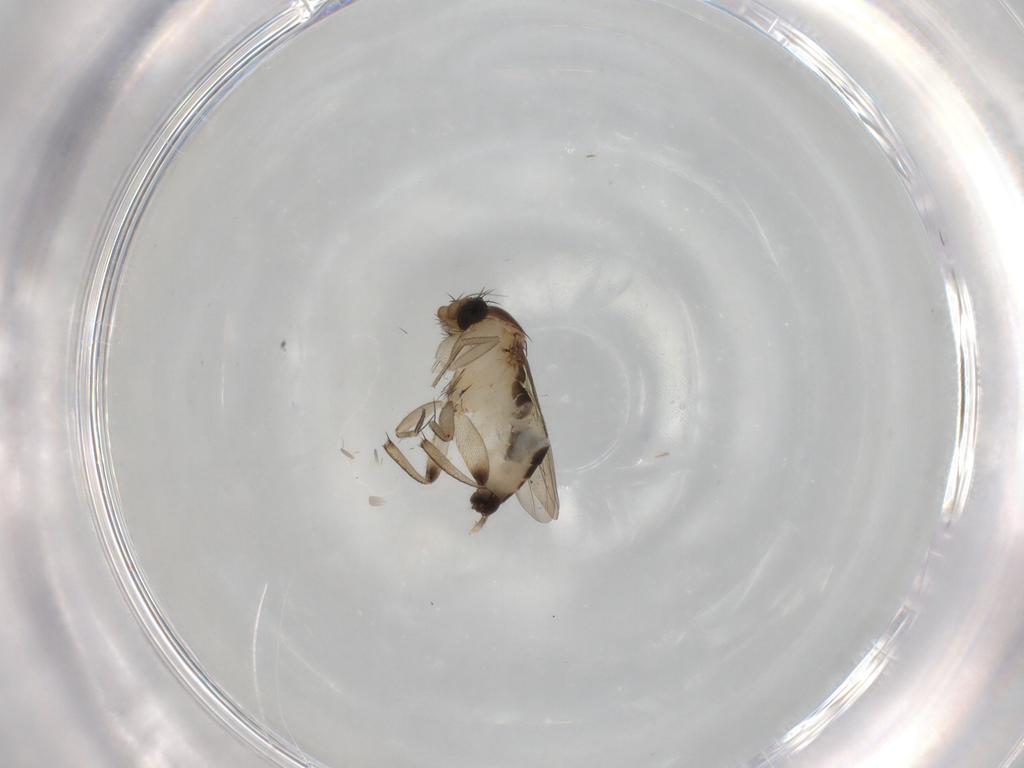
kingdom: Animalia
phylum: Arthropoda
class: Insecta
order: Diptera
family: Phoridae
